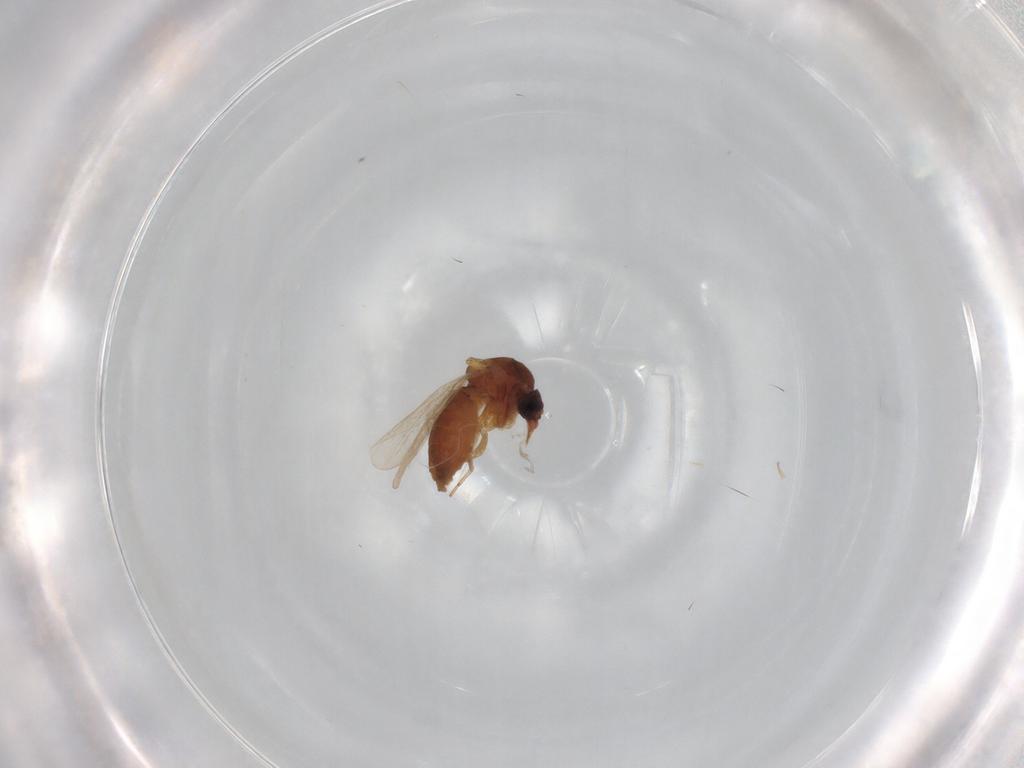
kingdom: Animalia
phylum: Arthropoda
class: Insecta
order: Diptera
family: Ceratopogonidae
